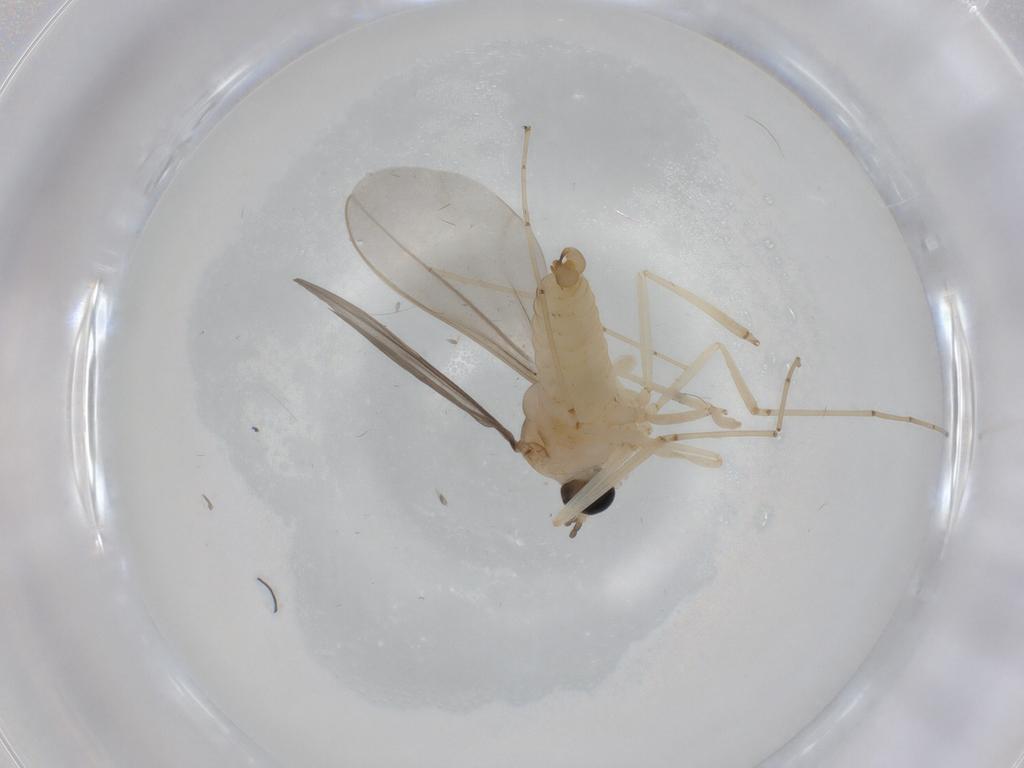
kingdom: Animalia
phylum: Arthropoda
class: Insecta
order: Diptera
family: Cecidomyiidae
